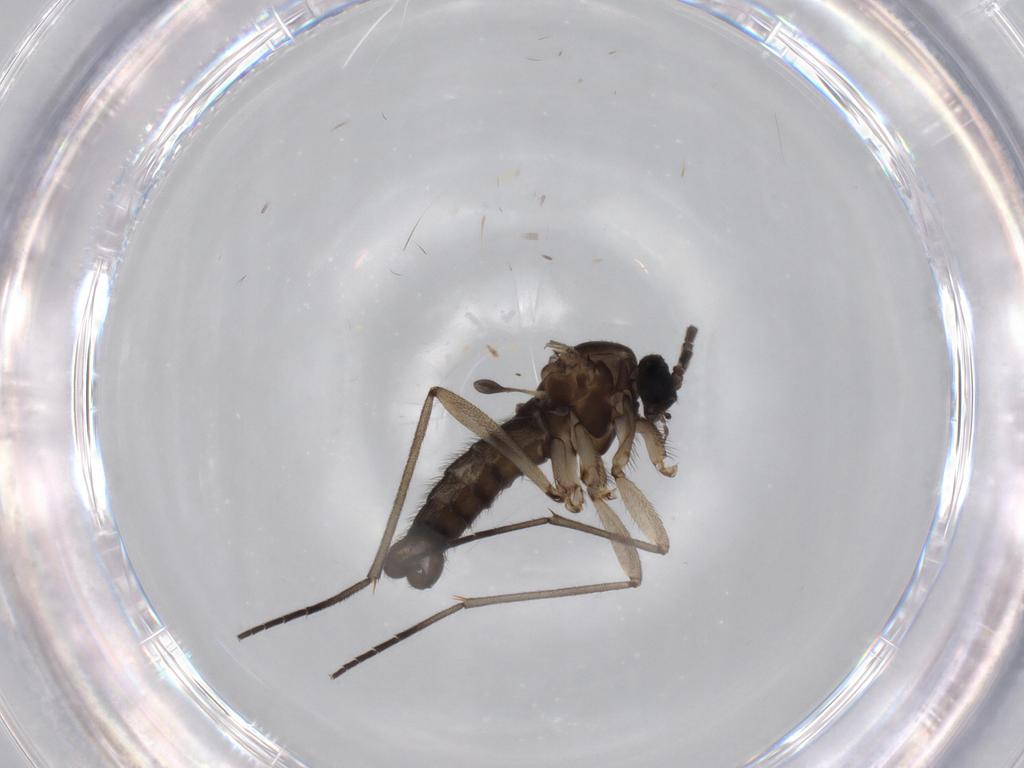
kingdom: Animalia
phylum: Arthropoda
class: Insecta
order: Diptera
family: Sciaridae
